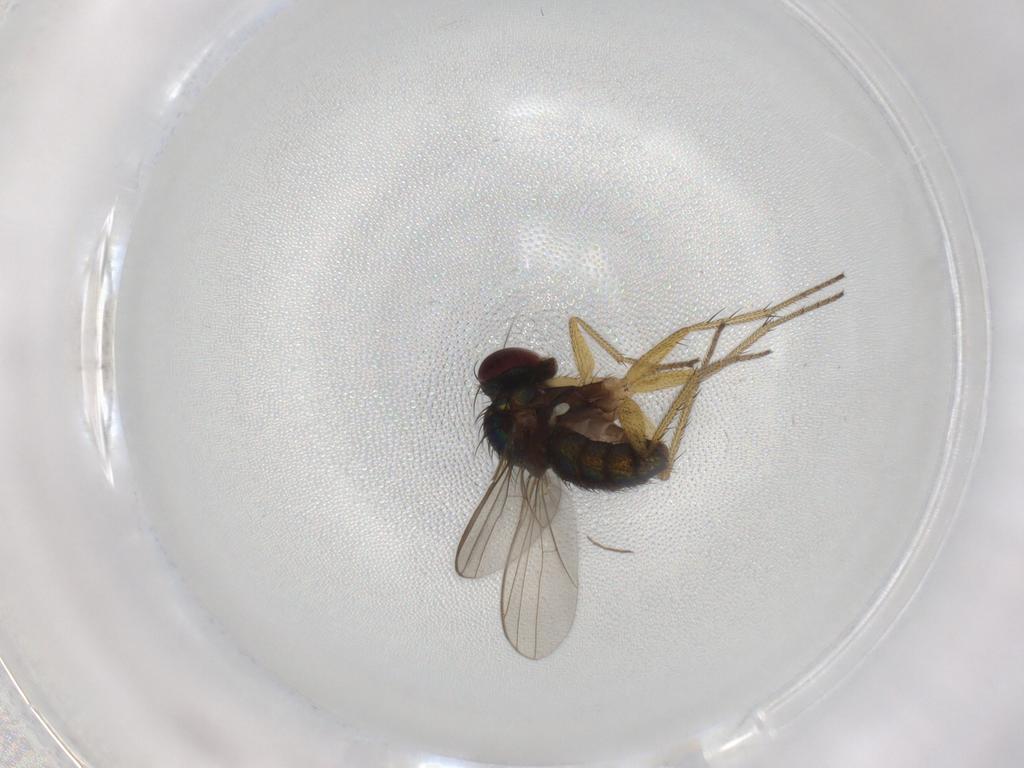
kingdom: Animalia
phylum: Arthropoda
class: Insecta
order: Diptera
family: Dolichopodidae
